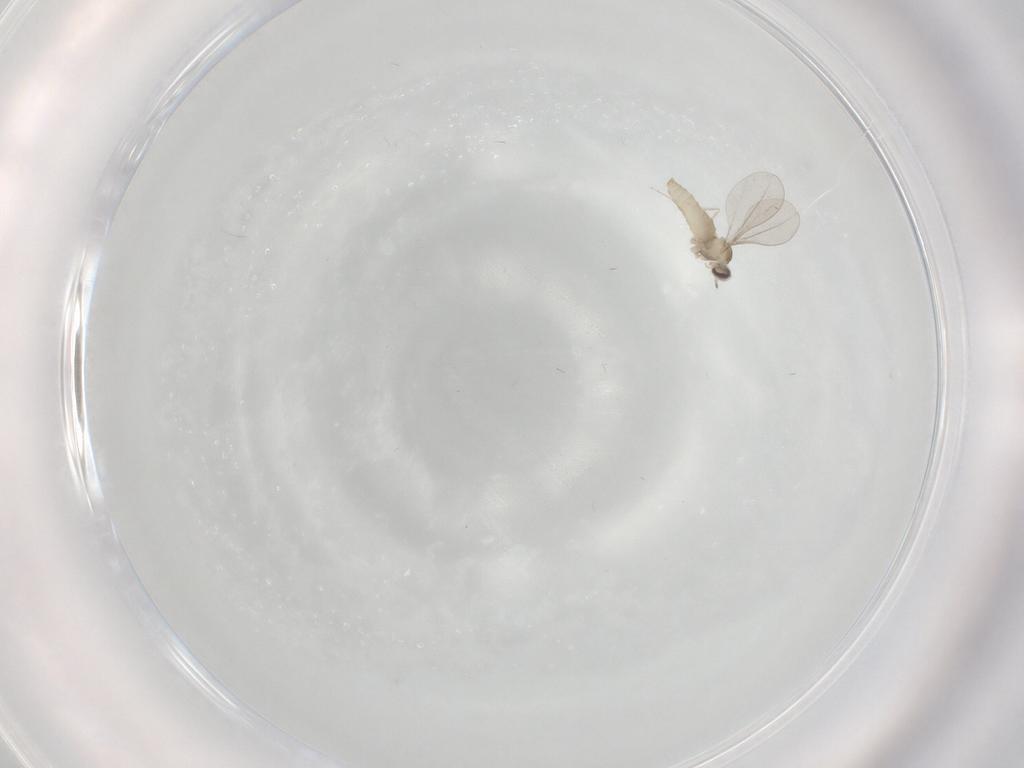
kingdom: Animalia
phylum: Arthropoda
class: Insecta
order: Diptera
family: Cecidomyiidae
